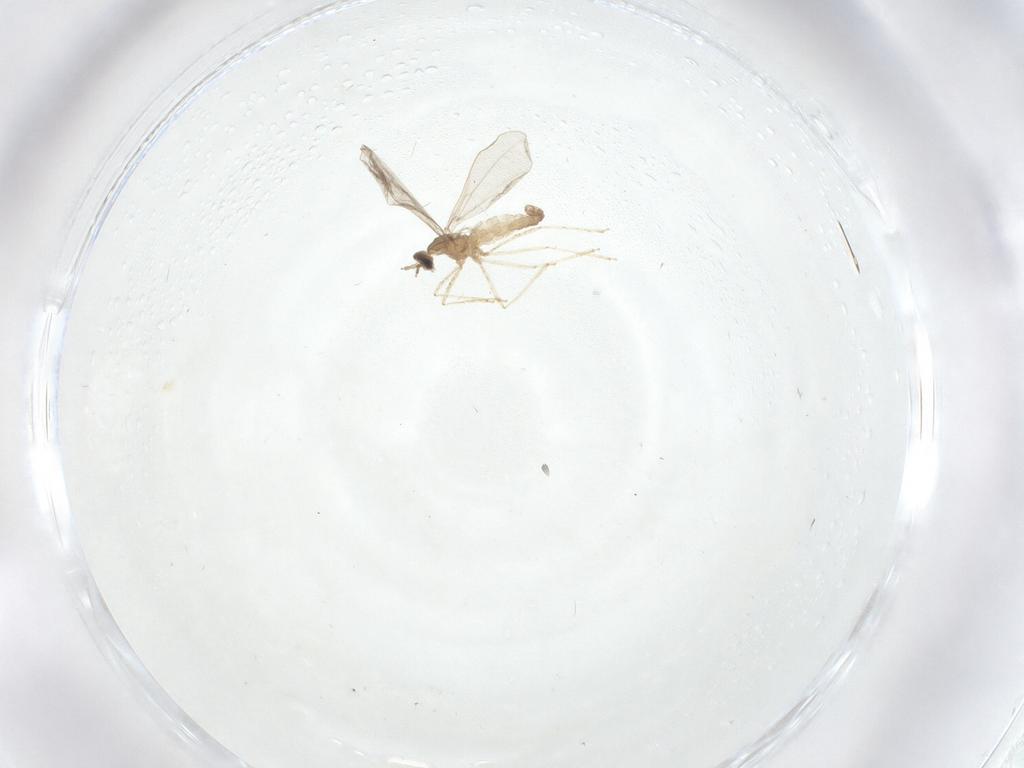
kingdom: Animalia
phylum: Arthropoda
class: Insecta
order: Diptera
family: Cecidomyiidae
